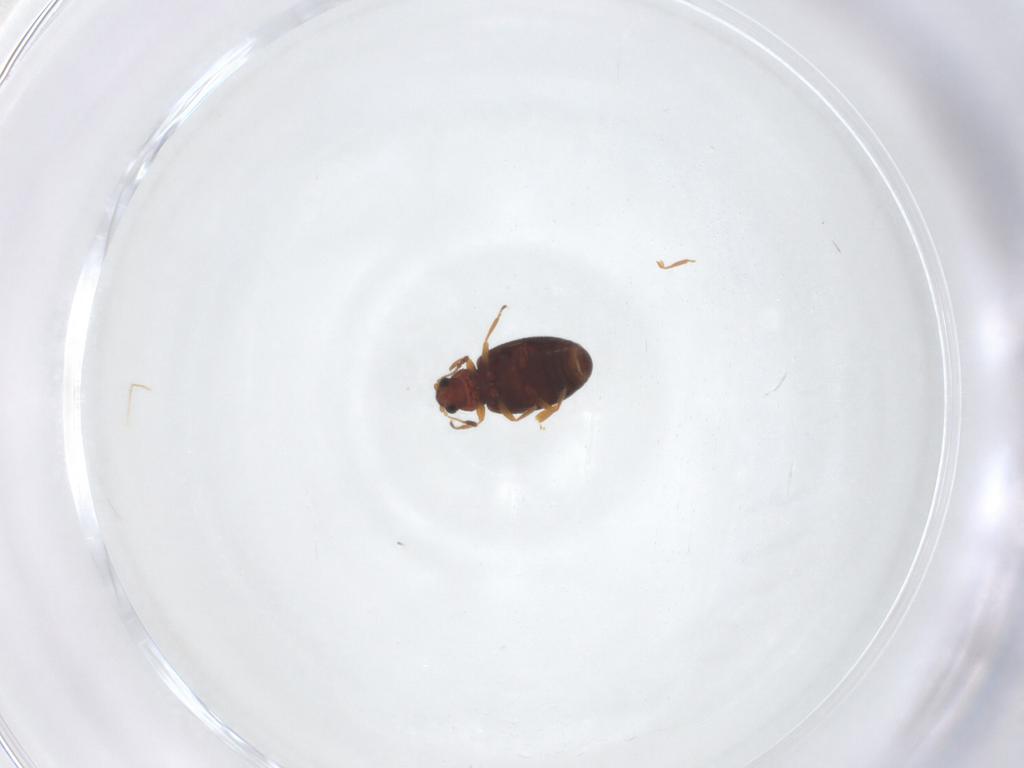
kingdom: Animalia
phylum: Arthropoda
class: Insecta
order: Coleoptera
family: Latridiidae
